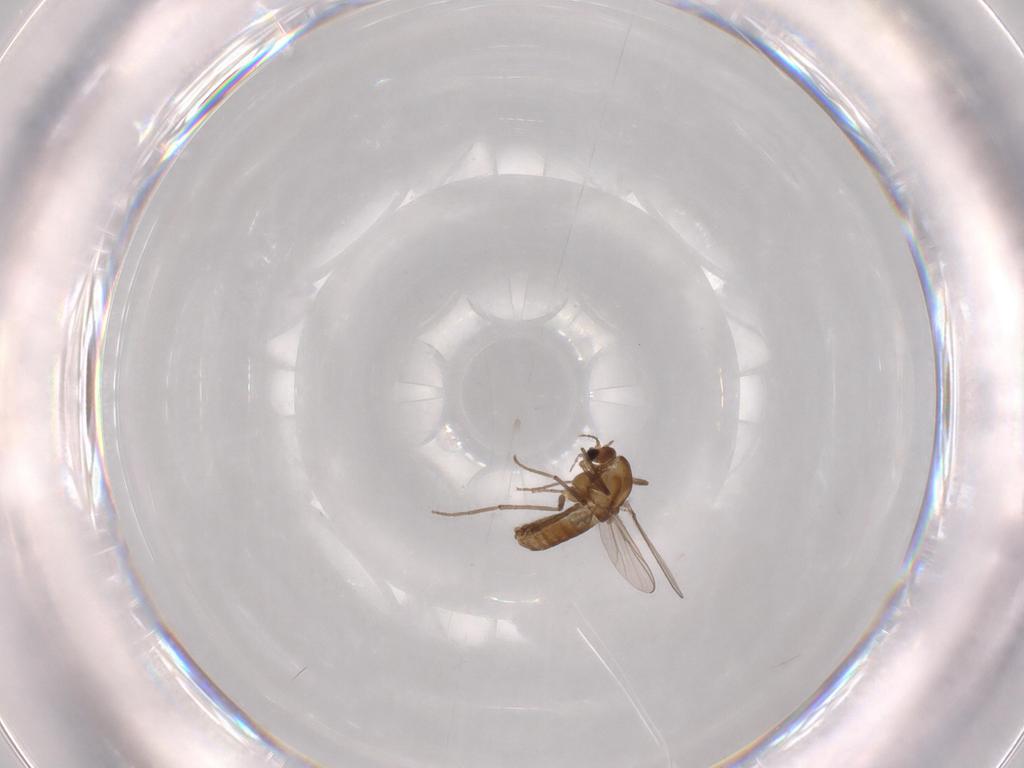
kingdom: Animalia
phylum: Arthropoda
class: Insecta
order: Diptera
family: Chironomidae
